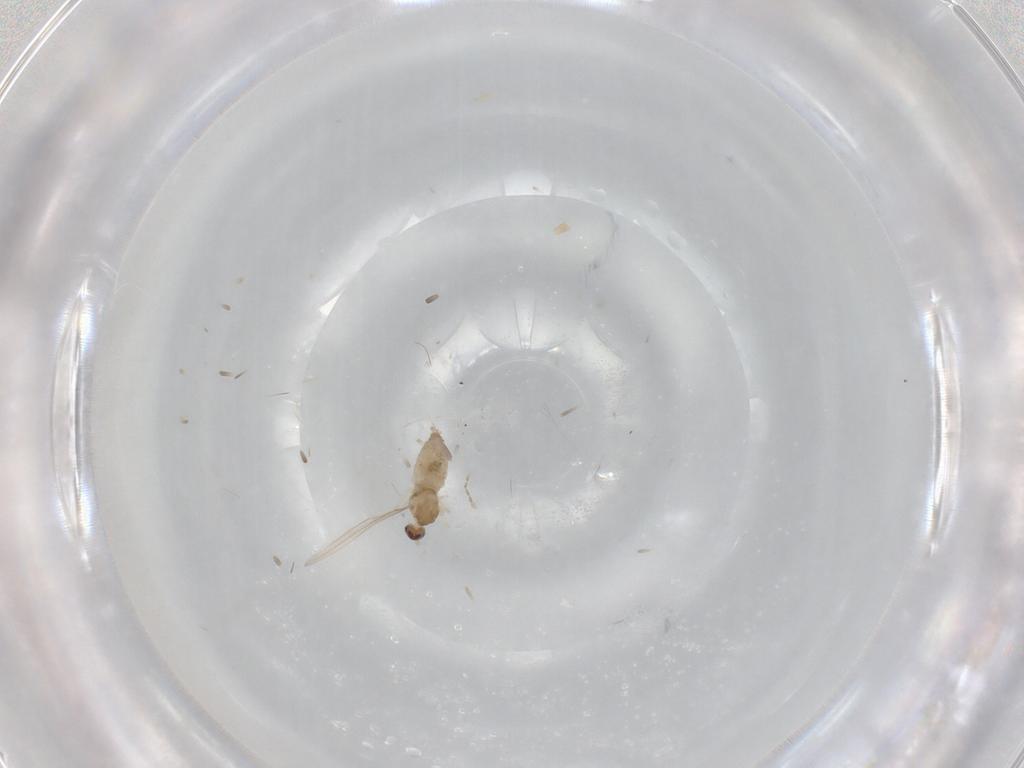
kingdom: Animalia
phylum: Arthropoda
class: Insecta
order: Diptera
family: Cecidomyiidae
